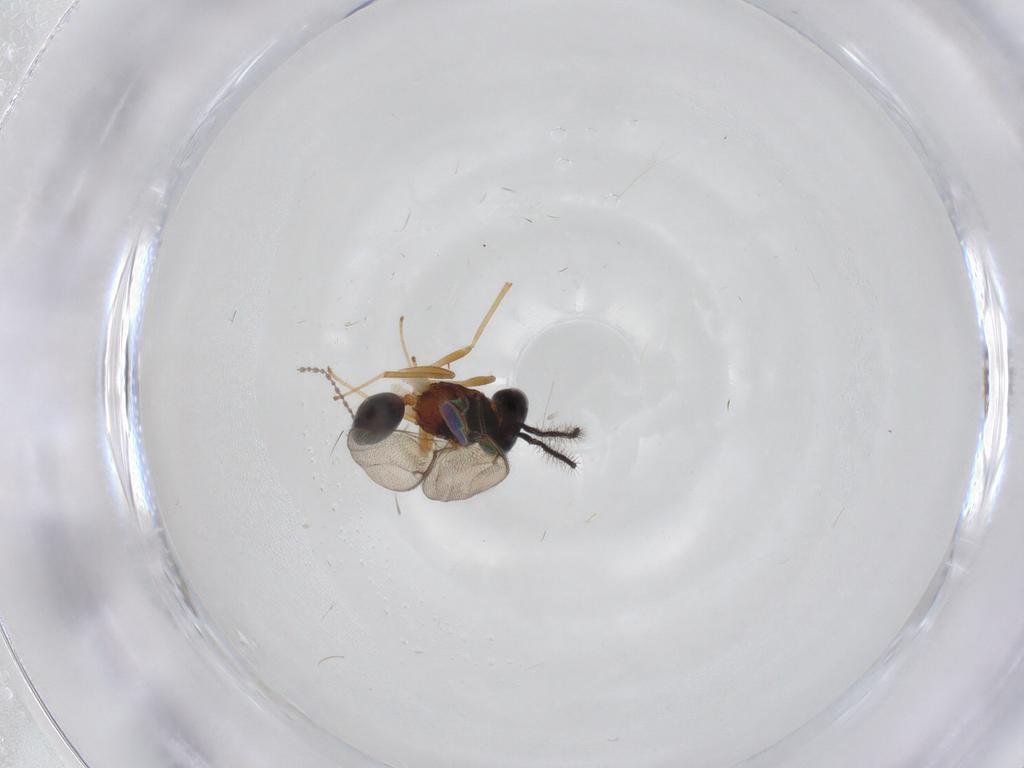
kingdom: Animalia
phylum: Arthropoda
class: Insecta
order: Hymenoptera
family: Diparidae
